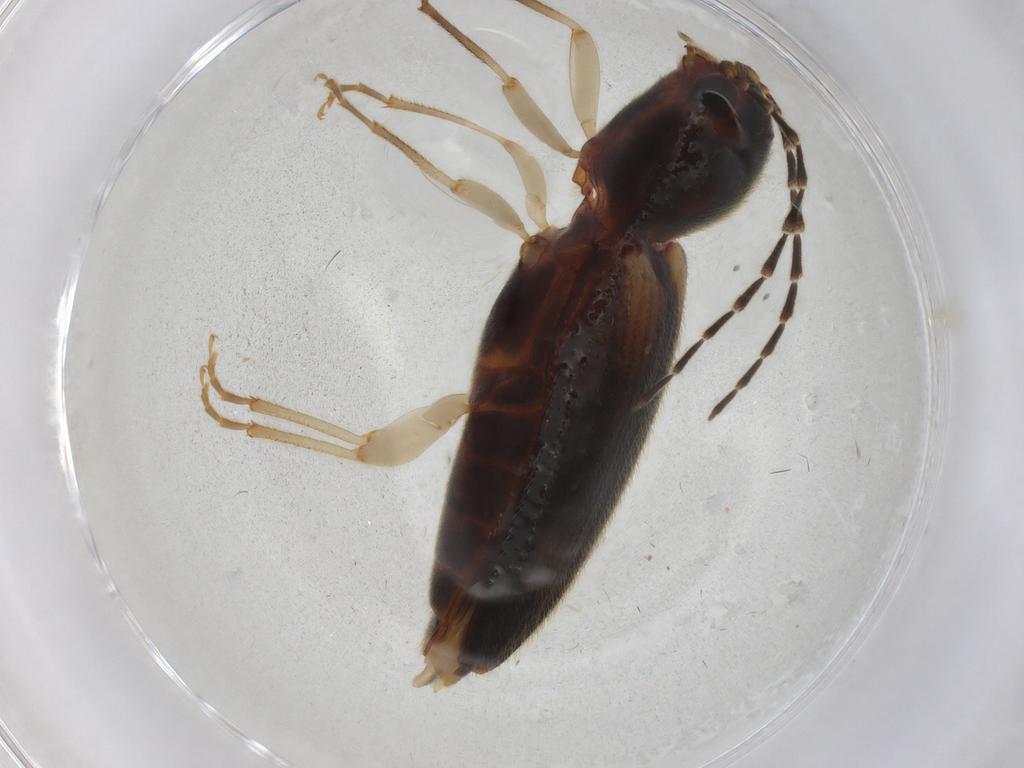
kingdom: Animalia
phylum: Arthropoda
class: Insecta
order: Coleoptera
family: Elateridae
